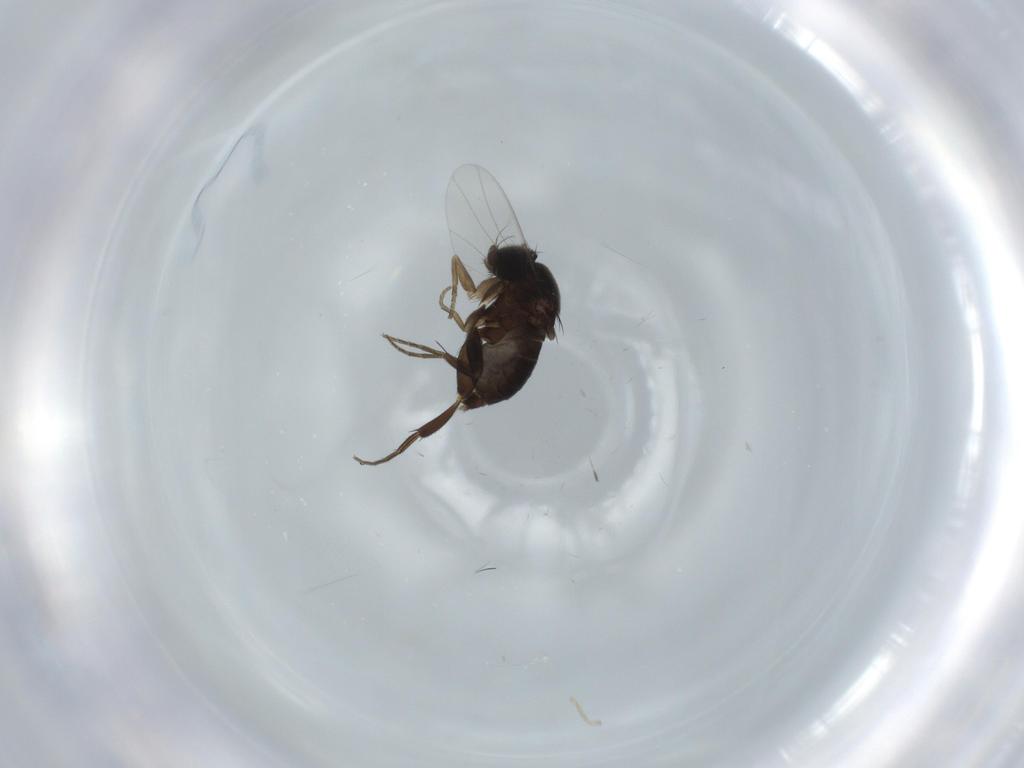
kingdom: Animalia
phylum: Arthropoda
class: Insecta
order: Diptera
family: Phoridae
